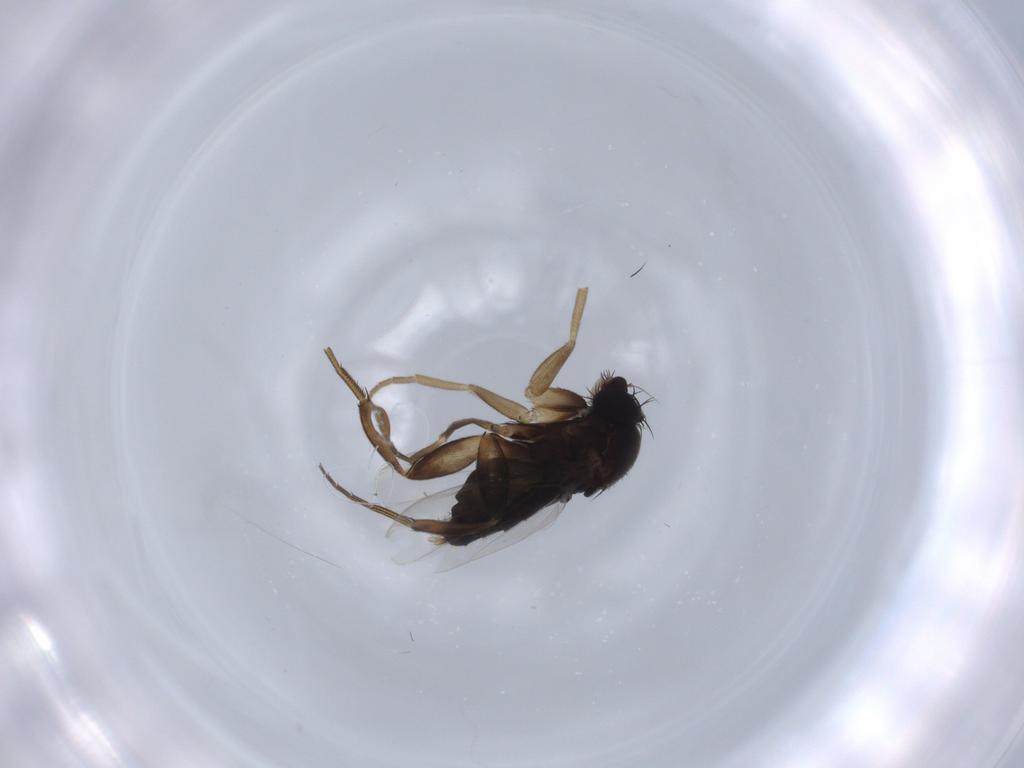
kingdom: Animalia
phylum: Arthropoda
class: Insecta
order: Diptera
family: Phoridae
